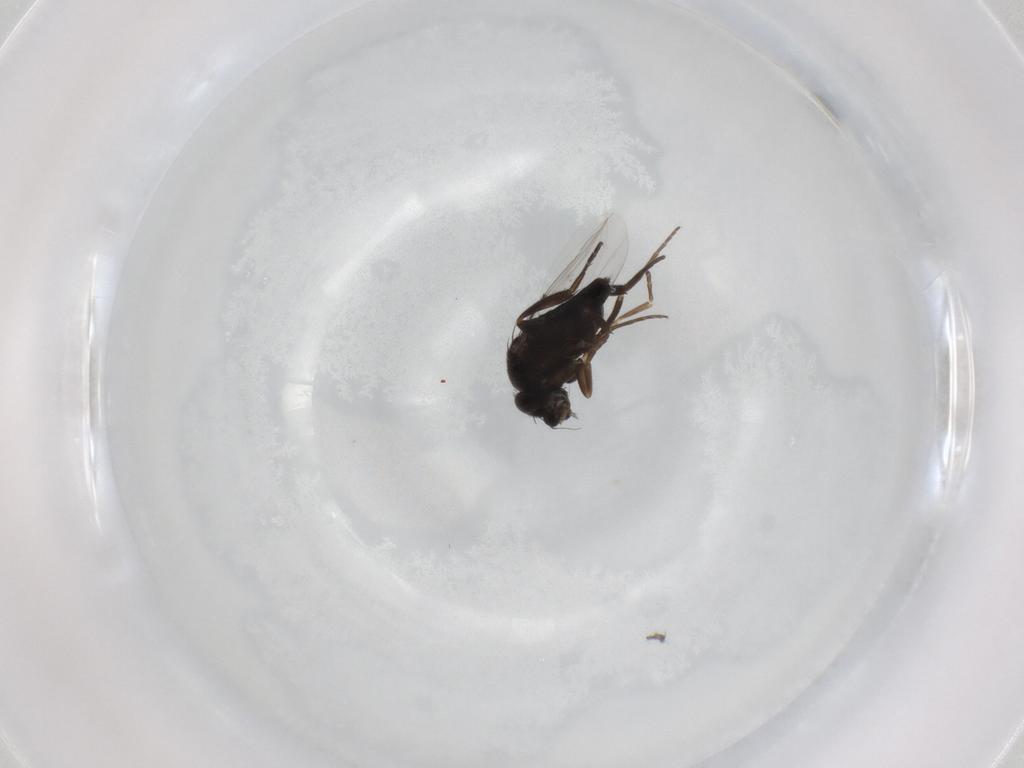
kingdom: Animalia
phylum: Arthropoda
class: Insecta
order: Diptera
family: Phoridae
